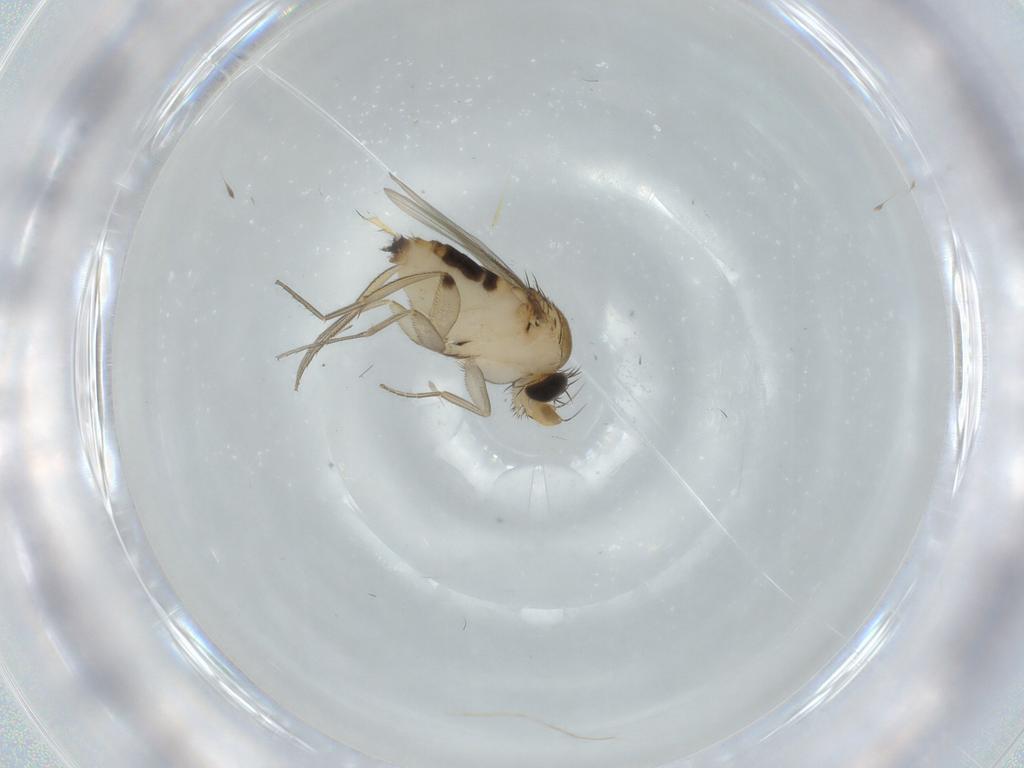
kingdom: Animalia
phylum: Arthropoda
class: Insecta
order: Diptera
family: Phoridae
